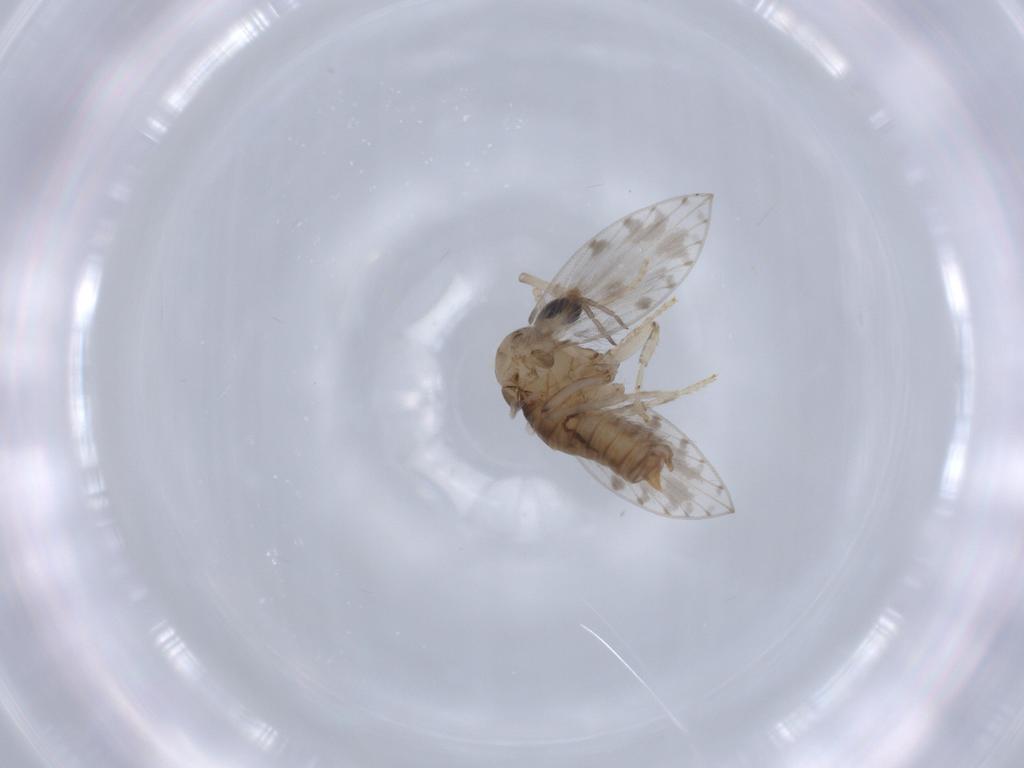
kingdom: Animalia
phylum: Arthropoda
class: Insecta
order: Diptera
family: Psychodidae
